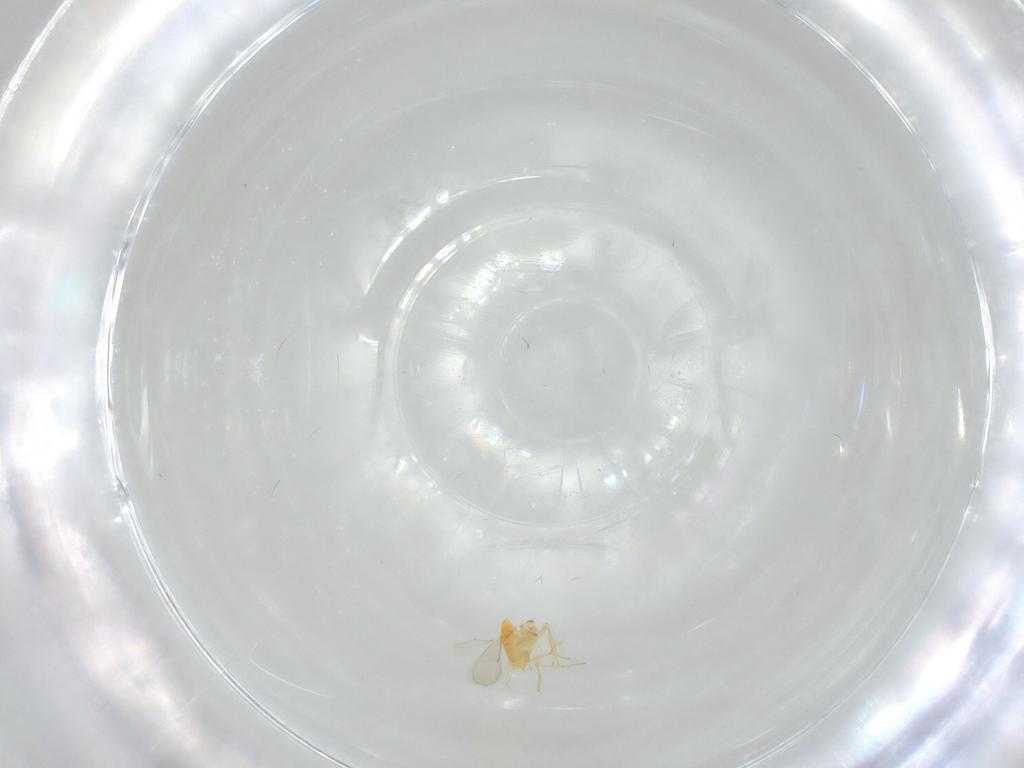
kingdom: Animalia
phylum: Arthropoda
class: Insecta
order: Hymenoptera
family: Aphelinidae
